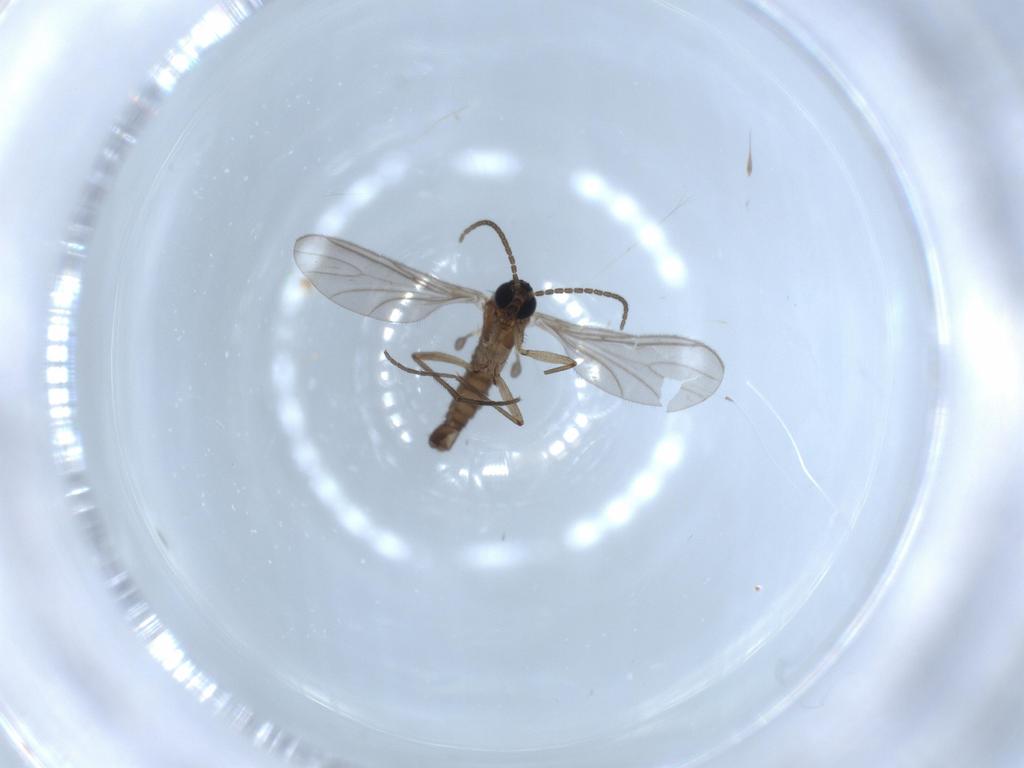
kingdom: Animalia
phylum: Arthropoda
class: Insecta
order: Diptera
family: Sciaridae
